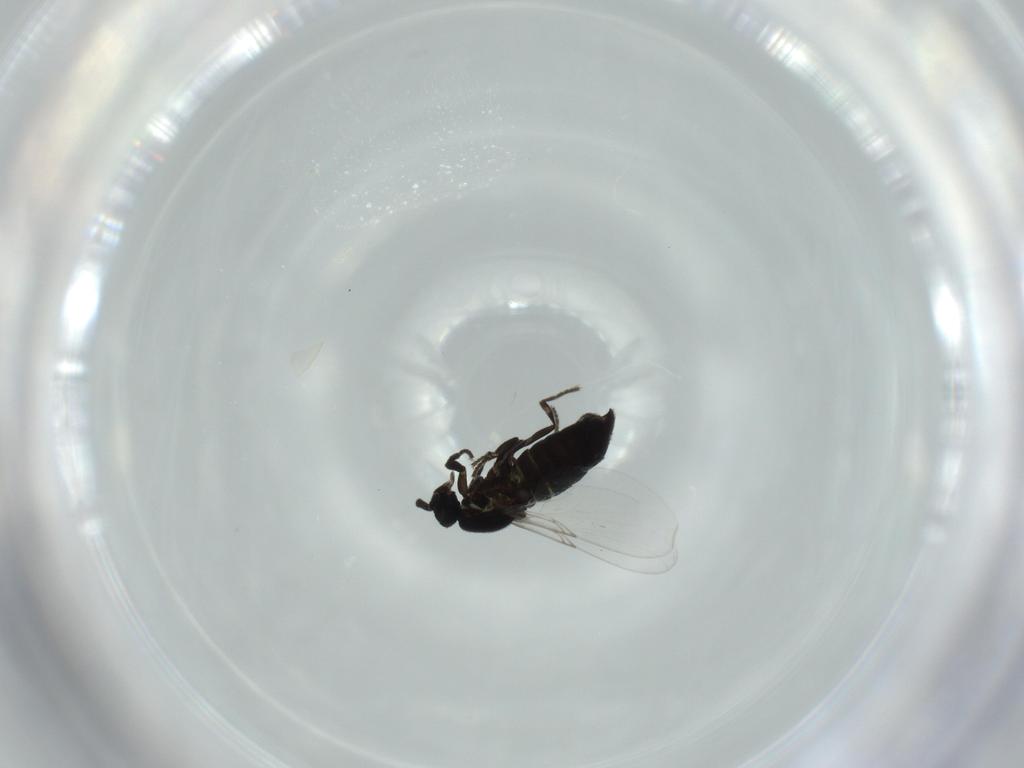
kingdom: Animalia
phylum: Arthropoda
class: Insecta
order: Diptera
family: Scatopsidae
